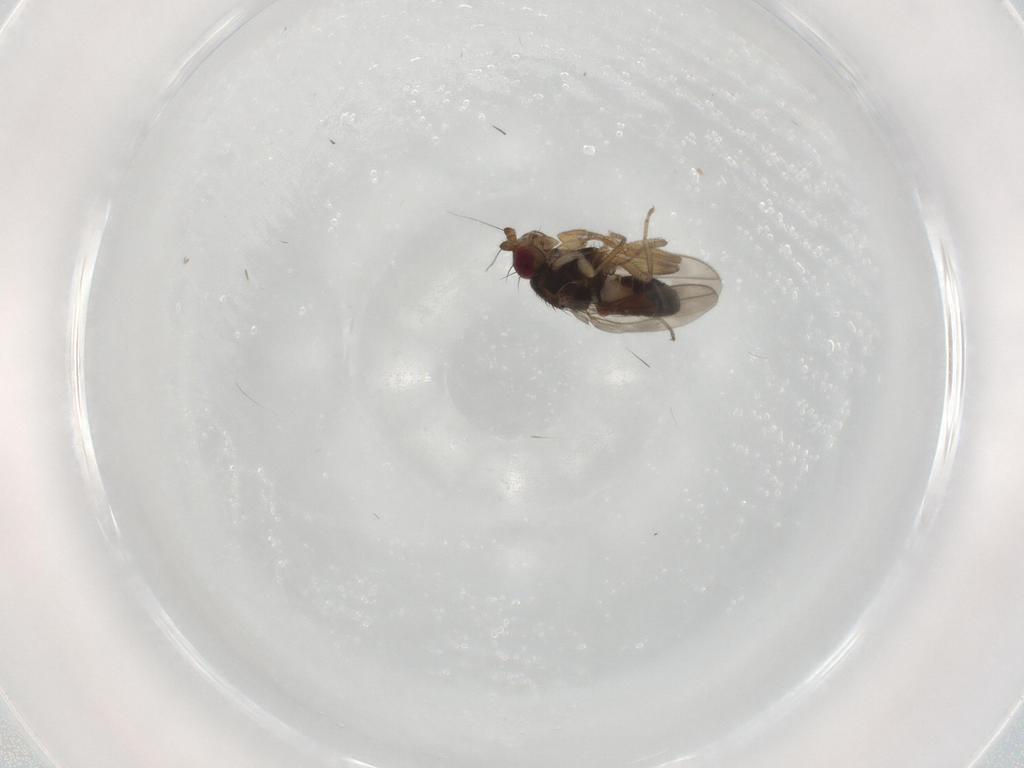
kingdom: Animalia
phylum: Arthropoda
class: Insecta
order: Diptera
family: Sphaeroceridae
